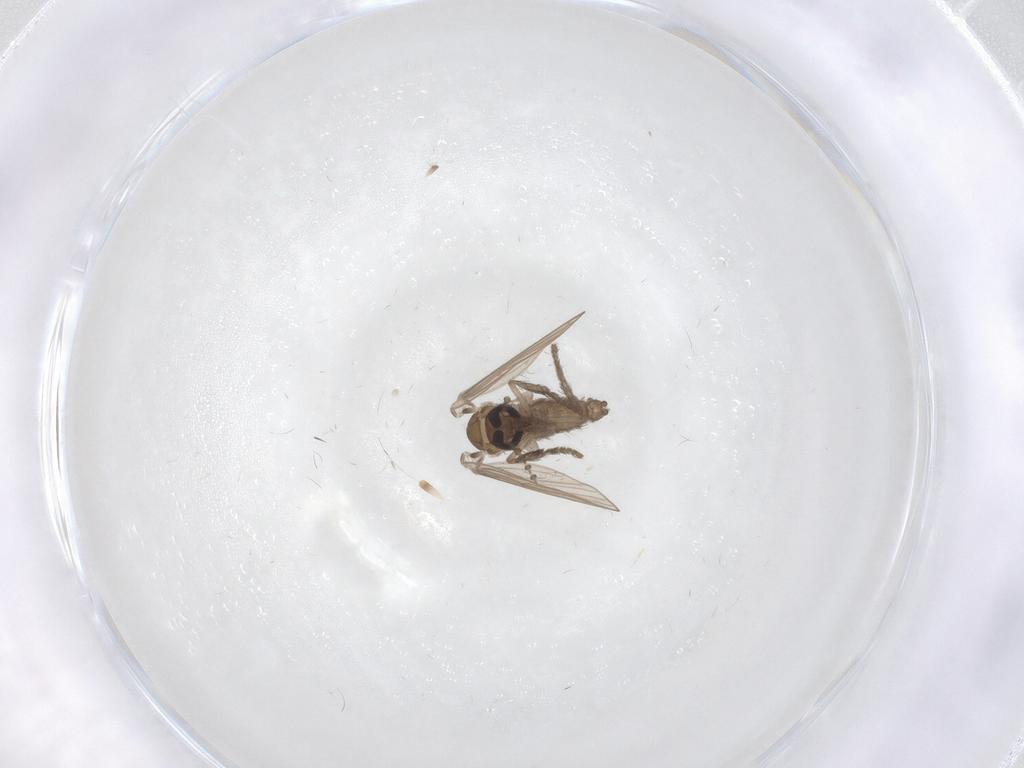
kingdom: Animalia
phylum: Arthropoda
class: Insecta
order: Diptera
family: Psychodidae
